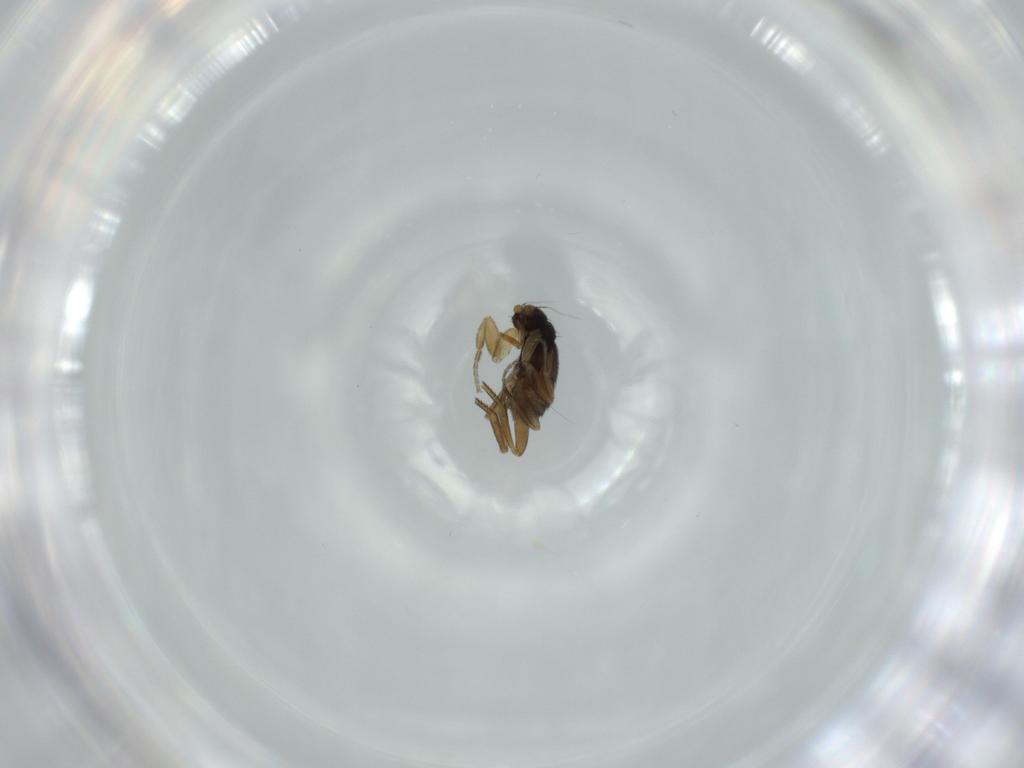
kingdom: Animalia
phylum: Arthropoda
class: Insecta
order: Diptera
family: Phoridae
